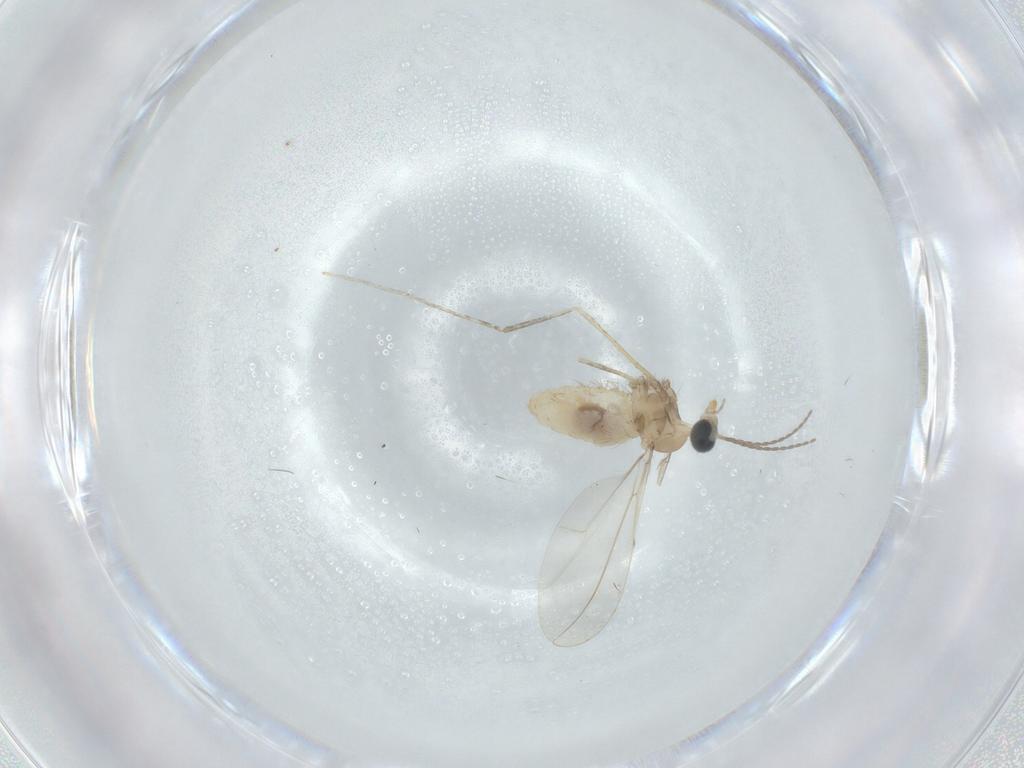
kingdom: Animalia
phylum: Arthropoda
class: Insecta
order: Diptera
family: Cecidomyiidae
